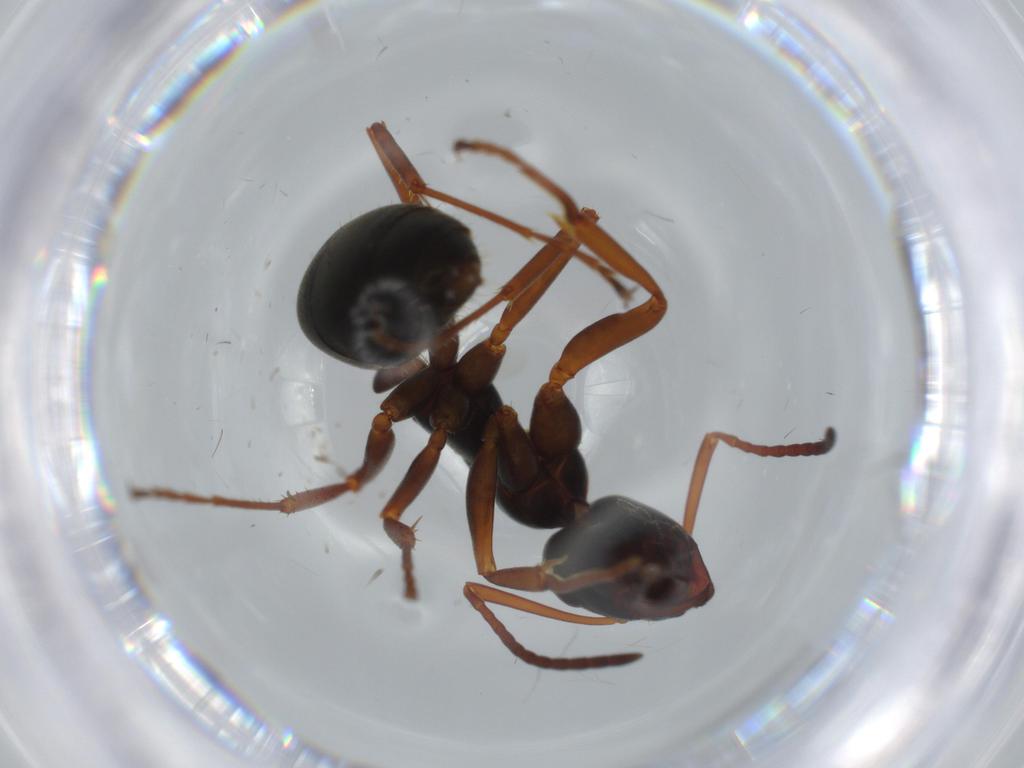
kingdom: Animalia
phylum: Arthropoda
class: Insecta
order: Hymenoptera
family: Formicidae
